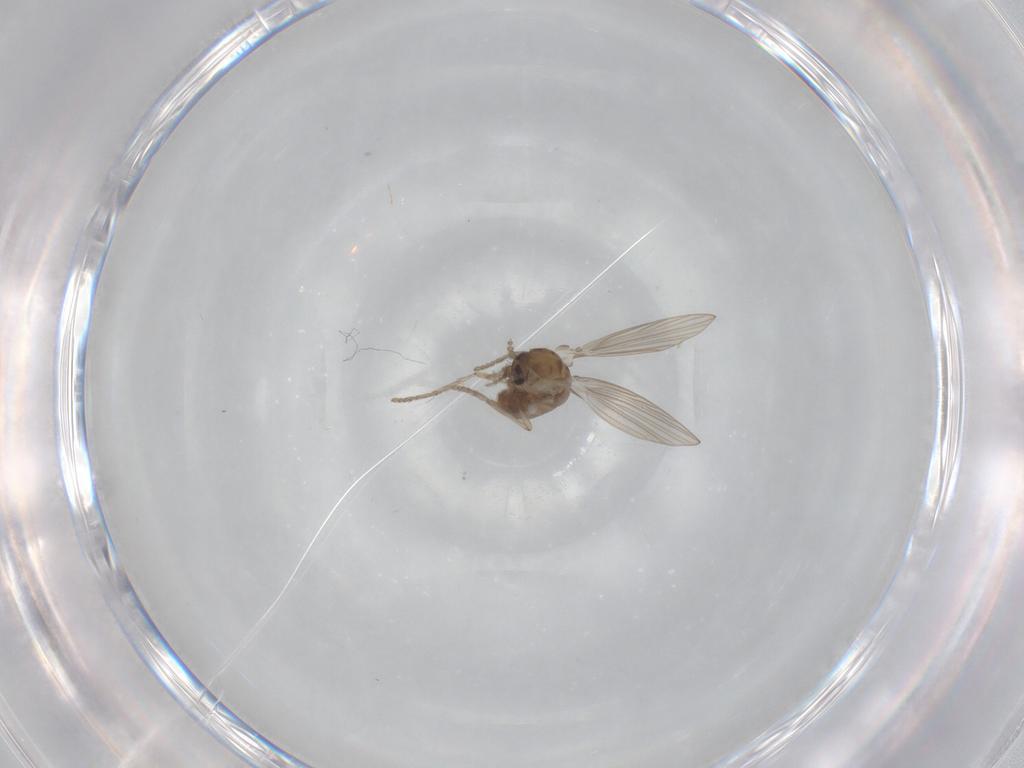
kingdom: Animalia
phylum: Arthropoda
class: Insecta
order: Diptera
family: Psychodidae
